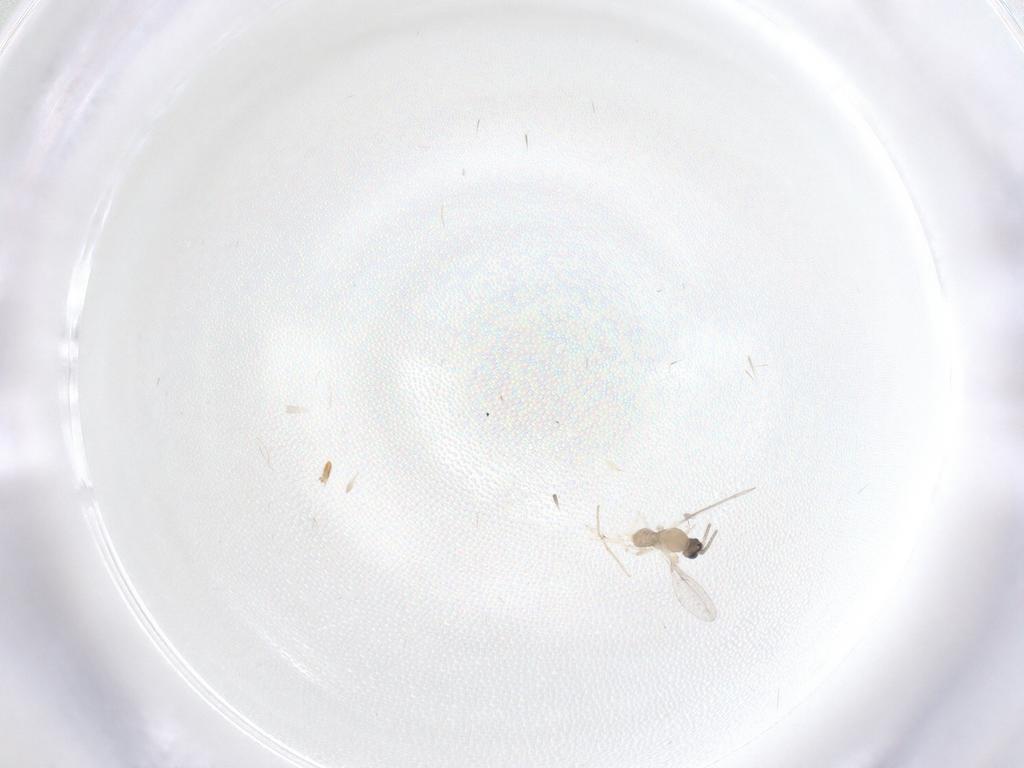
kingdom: Animalia
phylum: Arthropoda
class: Insecta
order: Diptera
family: Cecidomyiidae
